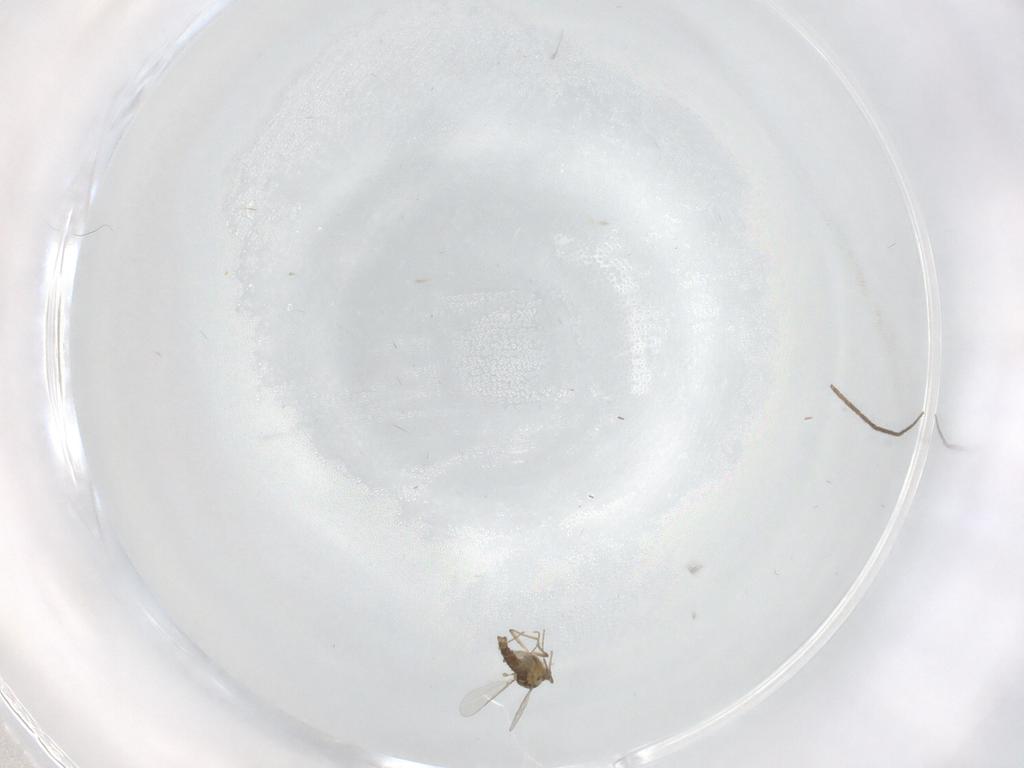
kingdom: Animalia
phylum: Arthropoda
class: Insecta
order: Diptera
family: Chironomidae
